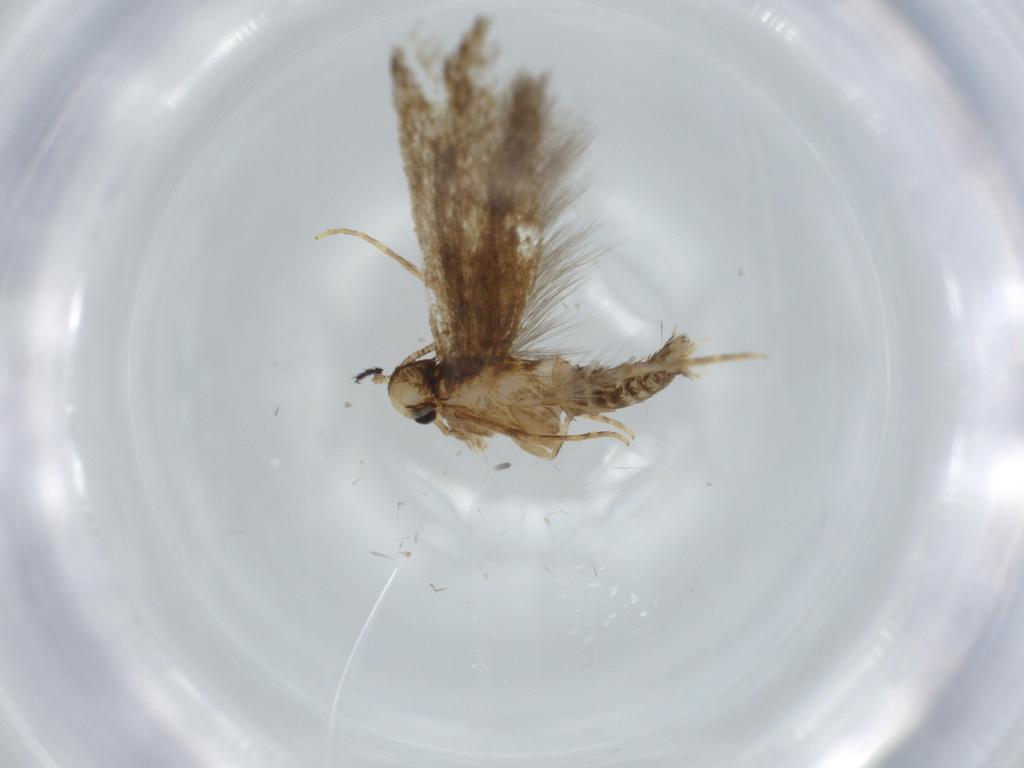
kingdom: Animalia
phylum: Arthropoda
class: Insecta
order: Lepidoptera
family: Tineidae
